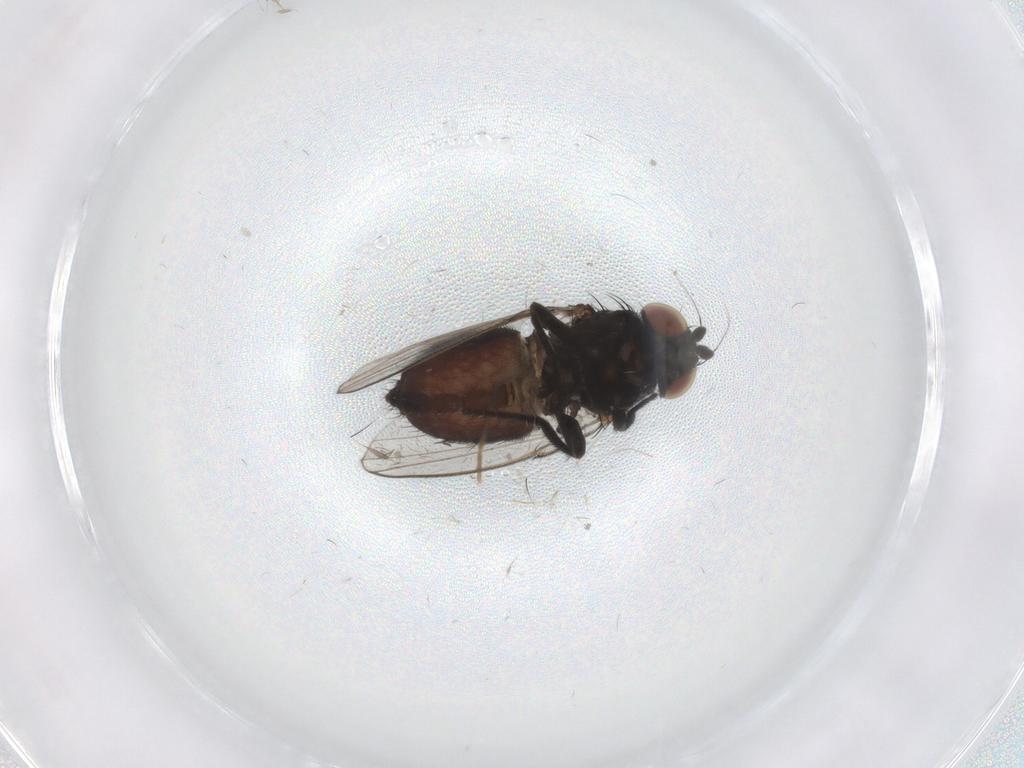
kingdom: Animalia
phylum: Arthropoda
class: Insecta
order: Diptera
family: Milichiidae
